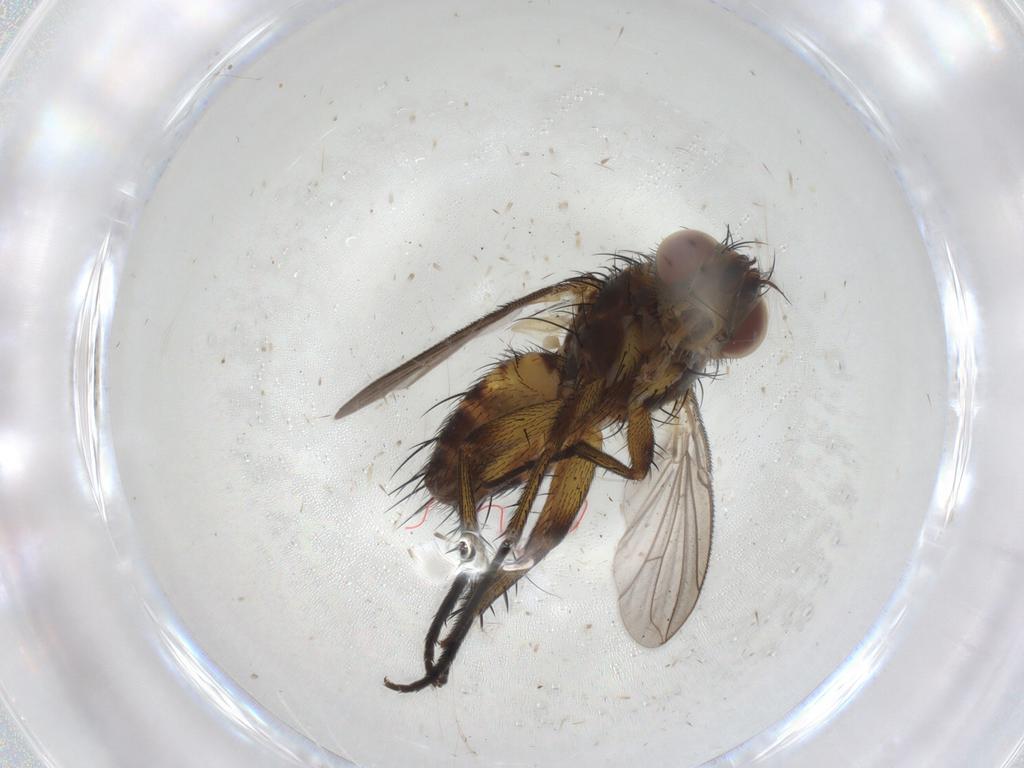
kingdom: Animalia
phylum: Arthropoda
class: Insecta
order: Diptera
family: Tachinidae
